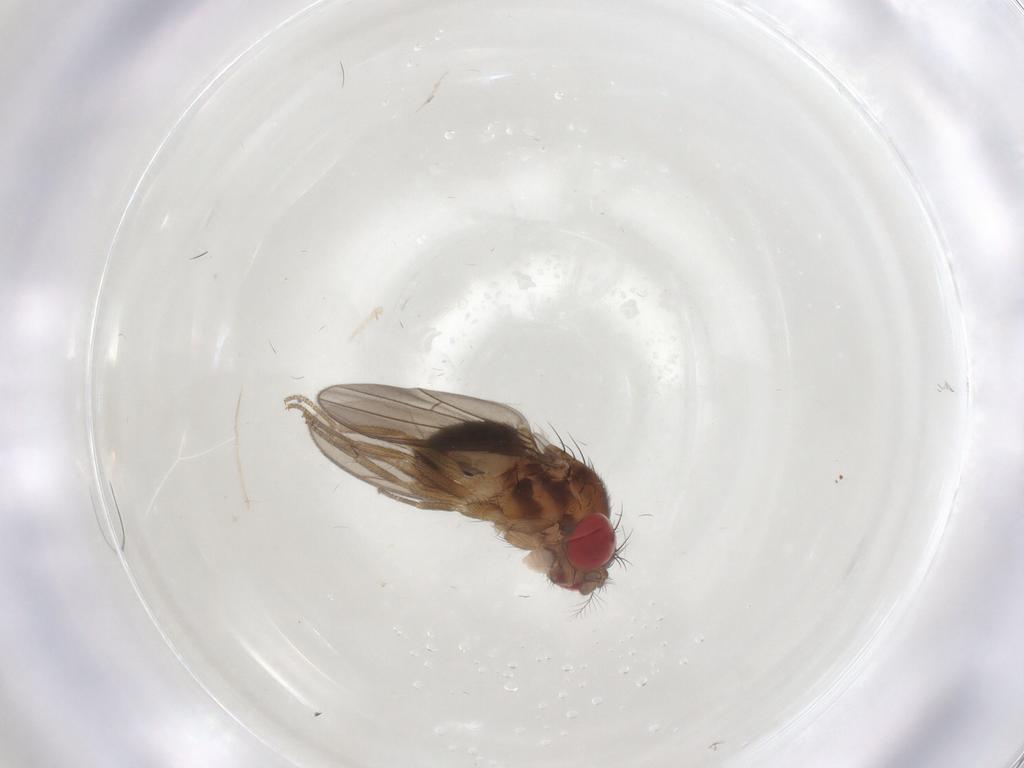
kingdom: Animalia
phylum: Arthropoda
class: Insecta
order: Diptera
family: Drosophilidae
